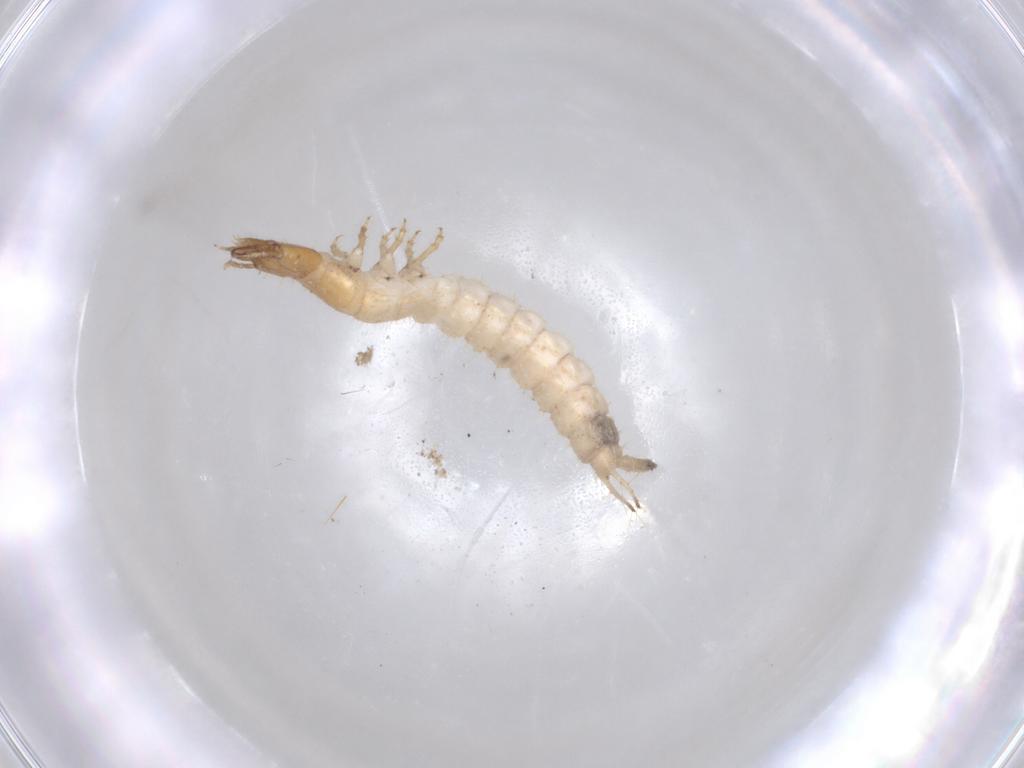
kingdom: Animalia
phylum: Arthropoda
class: Insecta
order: Coleoptera
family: Carabidae
